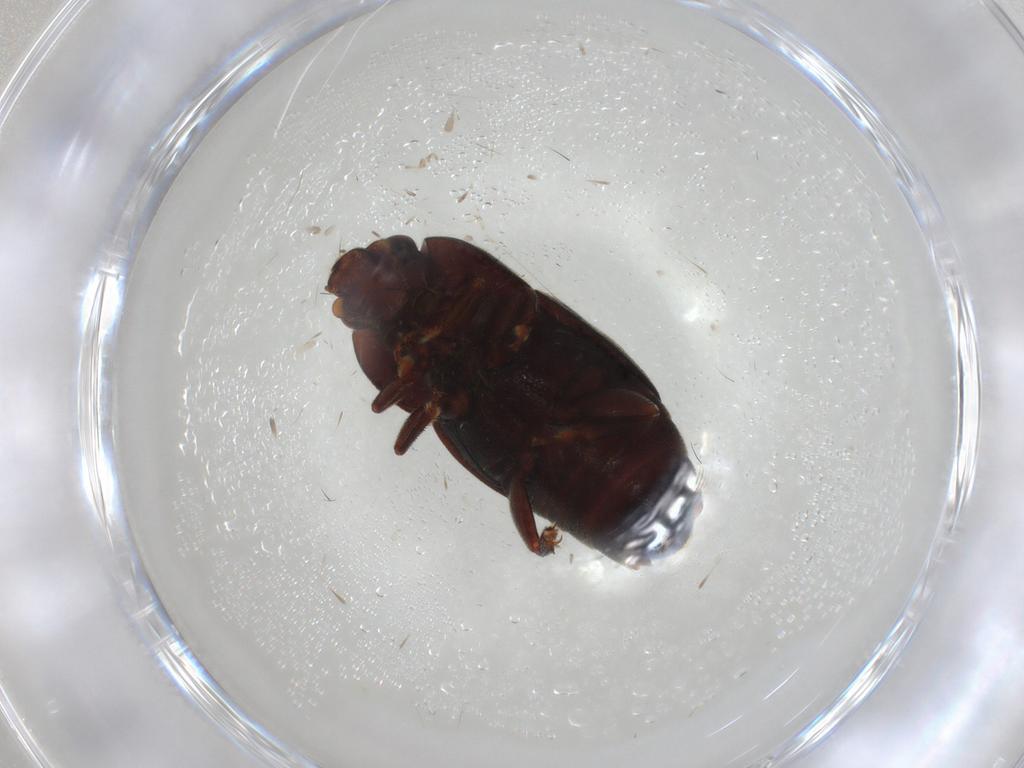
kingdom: Animalia
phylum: Arthropoda
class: Insecta
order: Coleoptera
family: Nitidulidae
